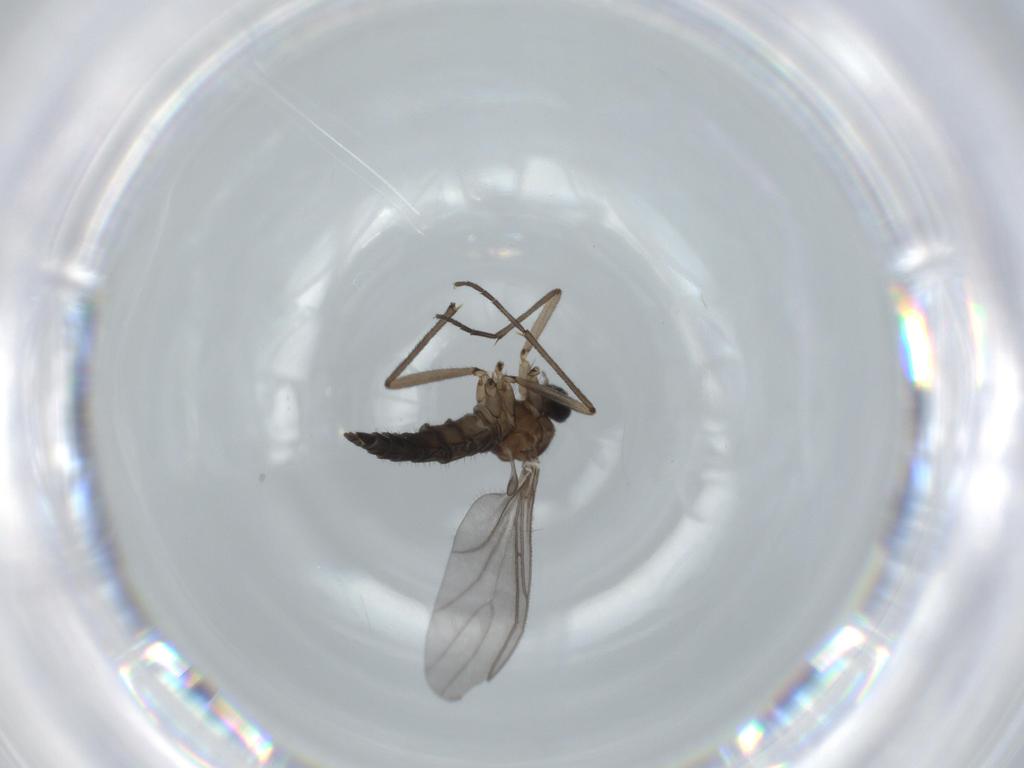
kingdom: Animalia
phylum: Arthropoda
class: Insecta
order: Diptera
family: Sciaridae
